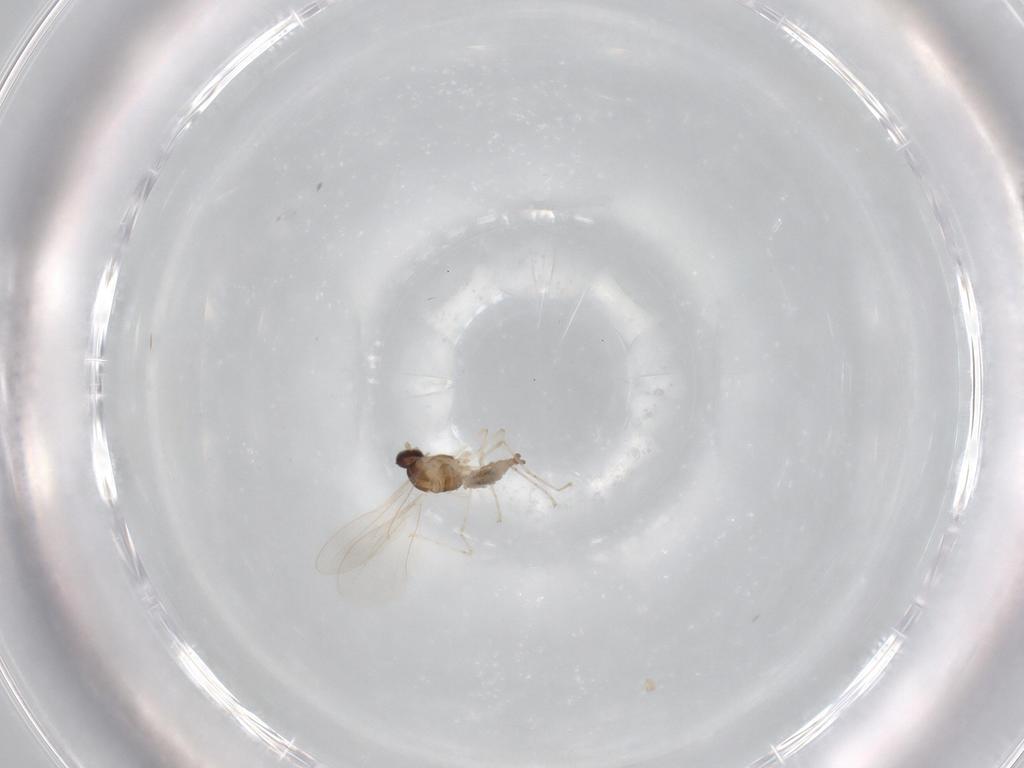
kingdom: Animalia
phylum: Arthropoda
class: Insecta
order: Diptera
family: Cecidomyiidae
